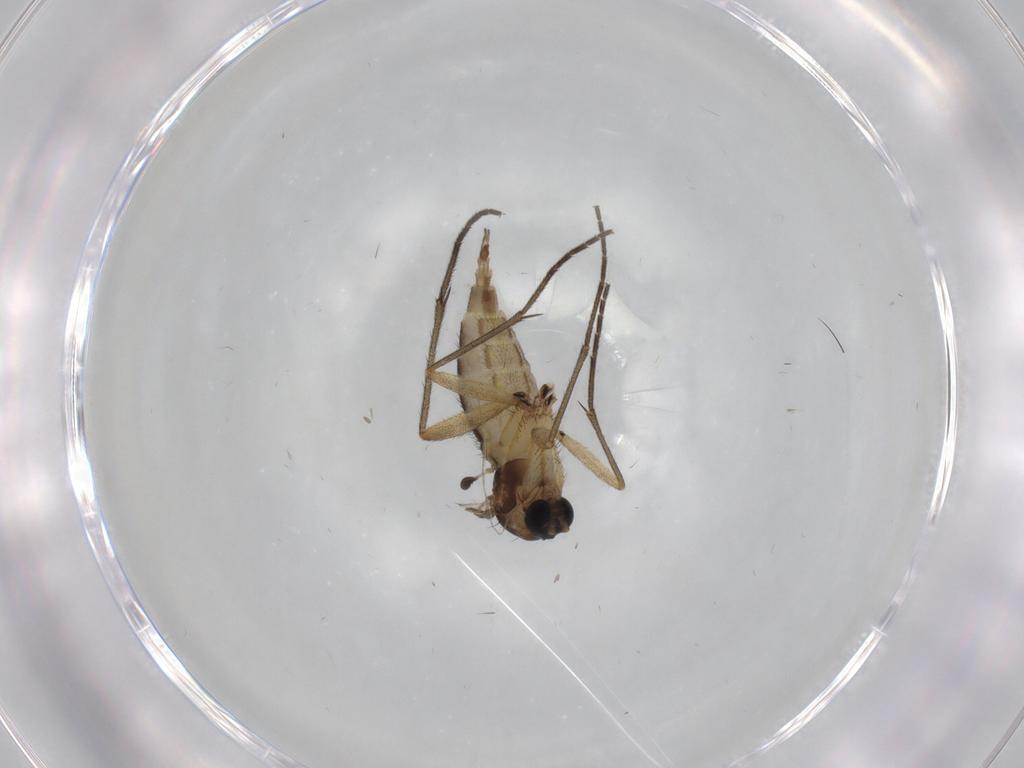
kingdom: Animalia
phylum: Arthropoda
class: Insecta
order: Diptera
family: Sciaridae
